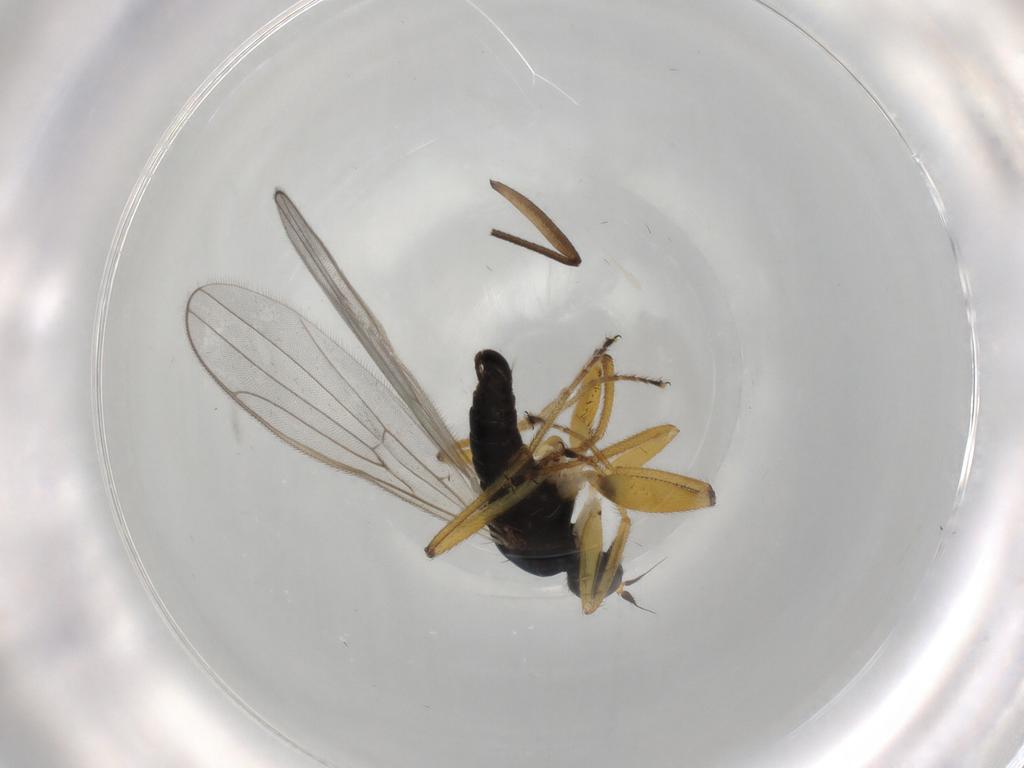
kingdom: Animalia
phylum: Arthropoda
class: Insecta
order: Diptera
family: Hybotidae
